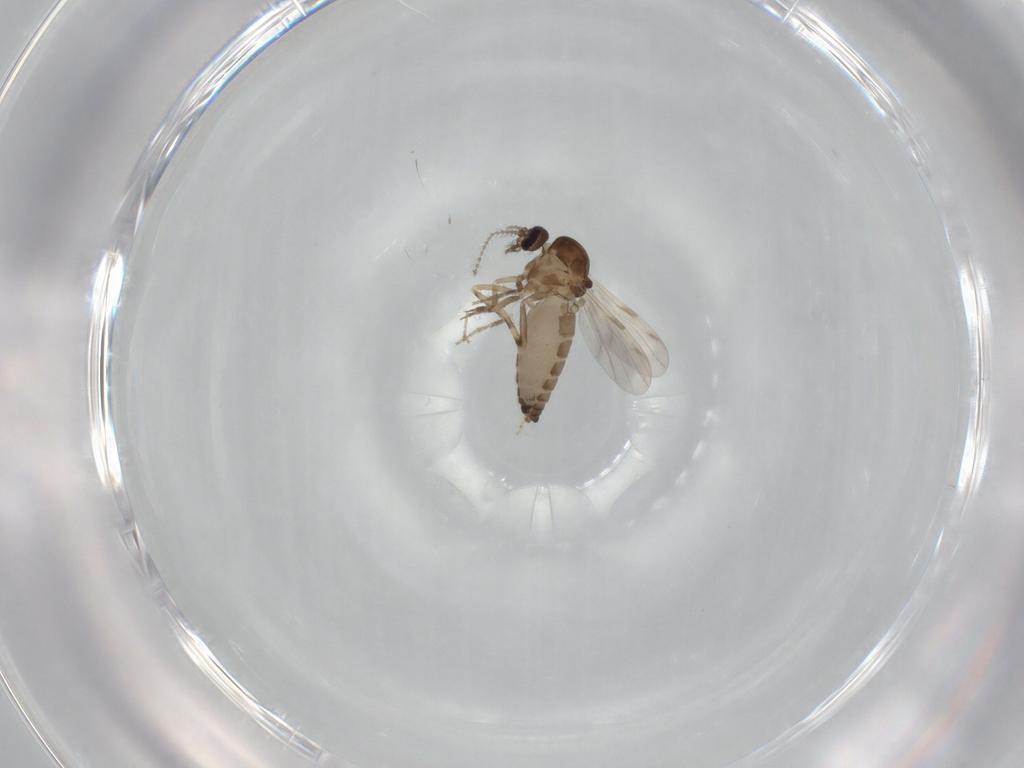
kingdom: Animalia
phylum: Arthropoda
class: Insecta
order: Diptera
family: Ceratopogonidae
